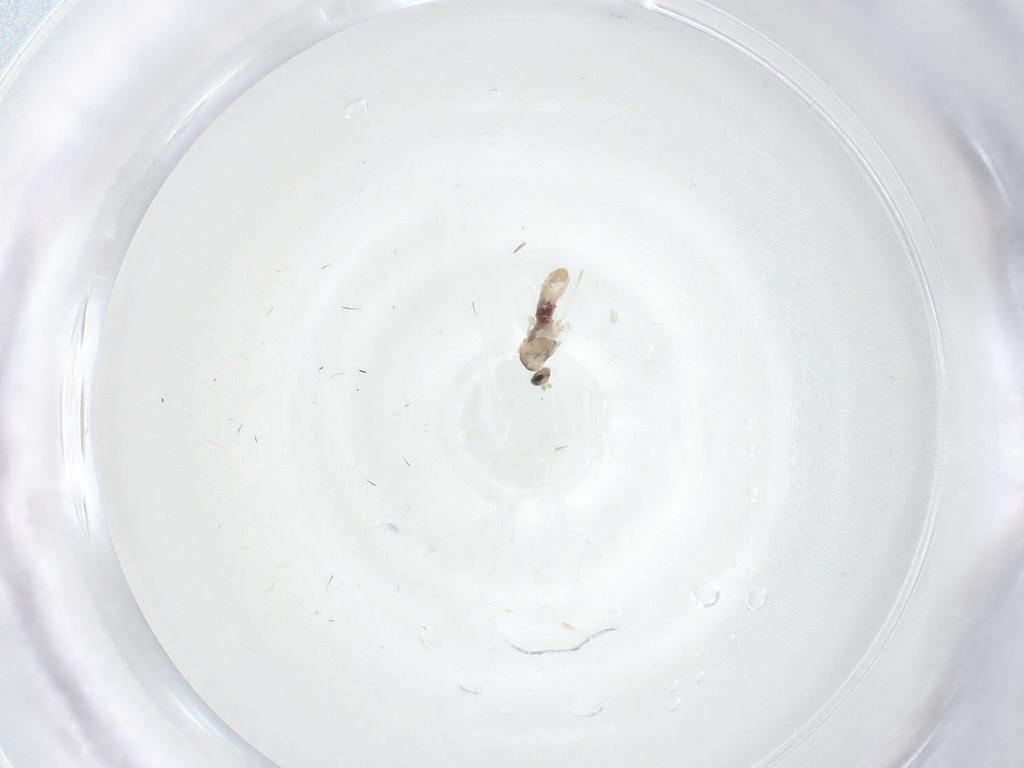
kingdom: Animalia
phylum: Arthropoda
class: Insecta
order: Diptera
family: Cecidomyiidae
